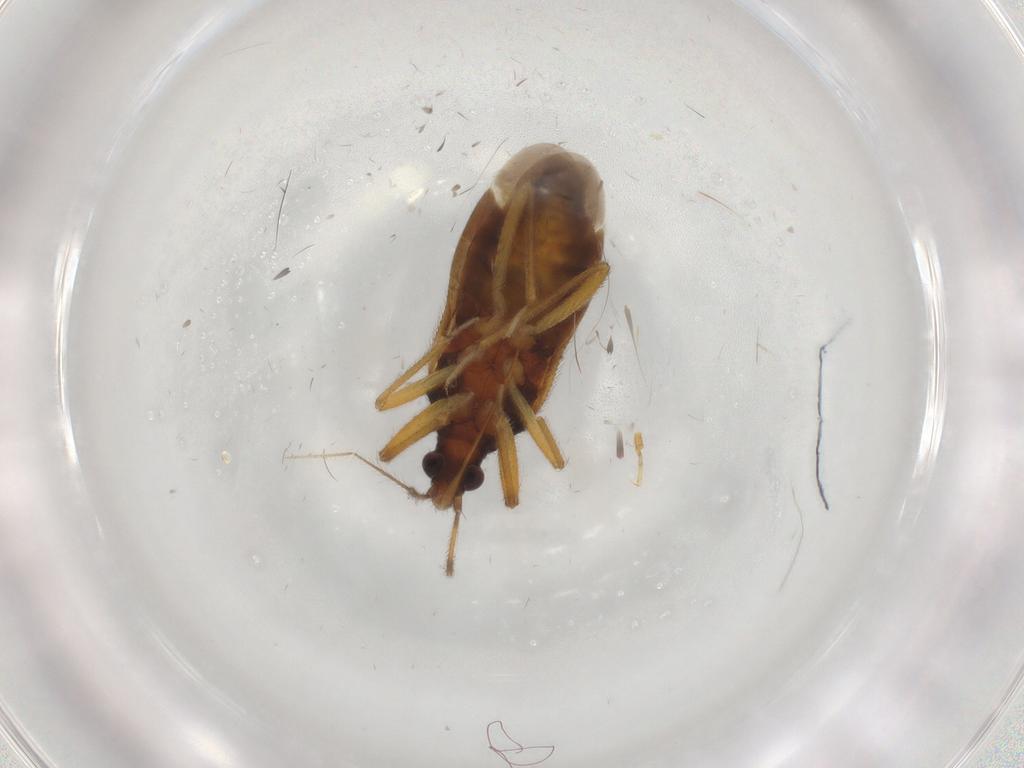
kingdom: Animalia
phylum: Arthropoda
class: Insecta
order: Hemiptera
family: Anthocoridae
